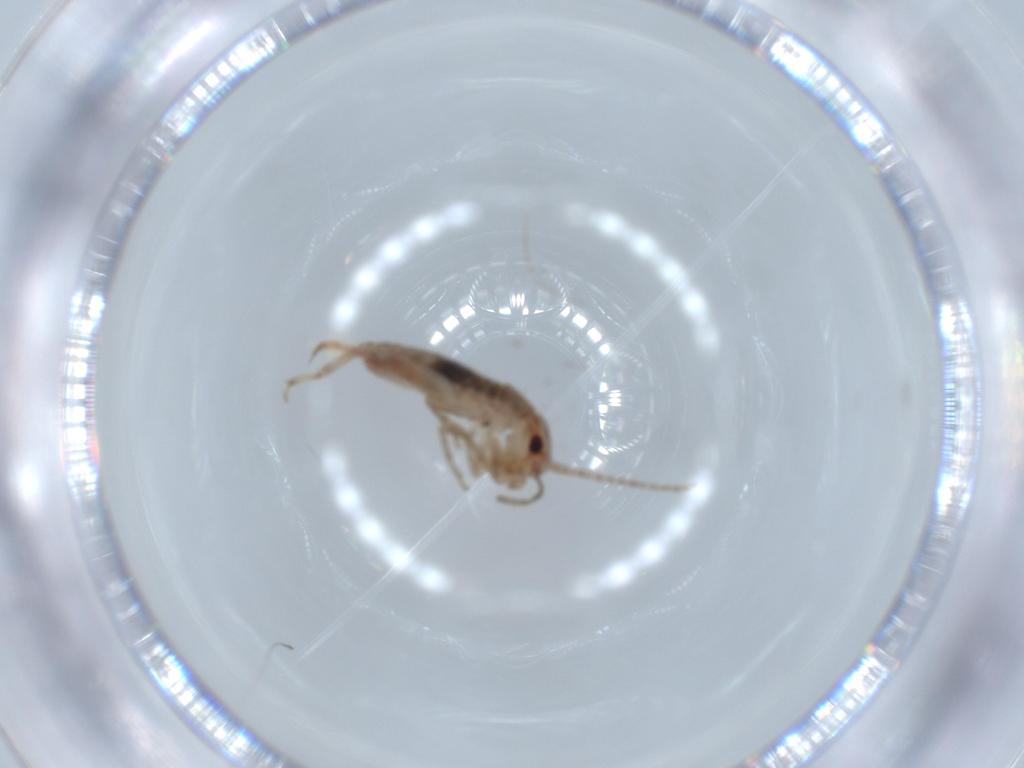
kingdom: Animalia
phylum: Arthropoda
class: Insecta
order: Orthoptera
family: Mogoplistidae
